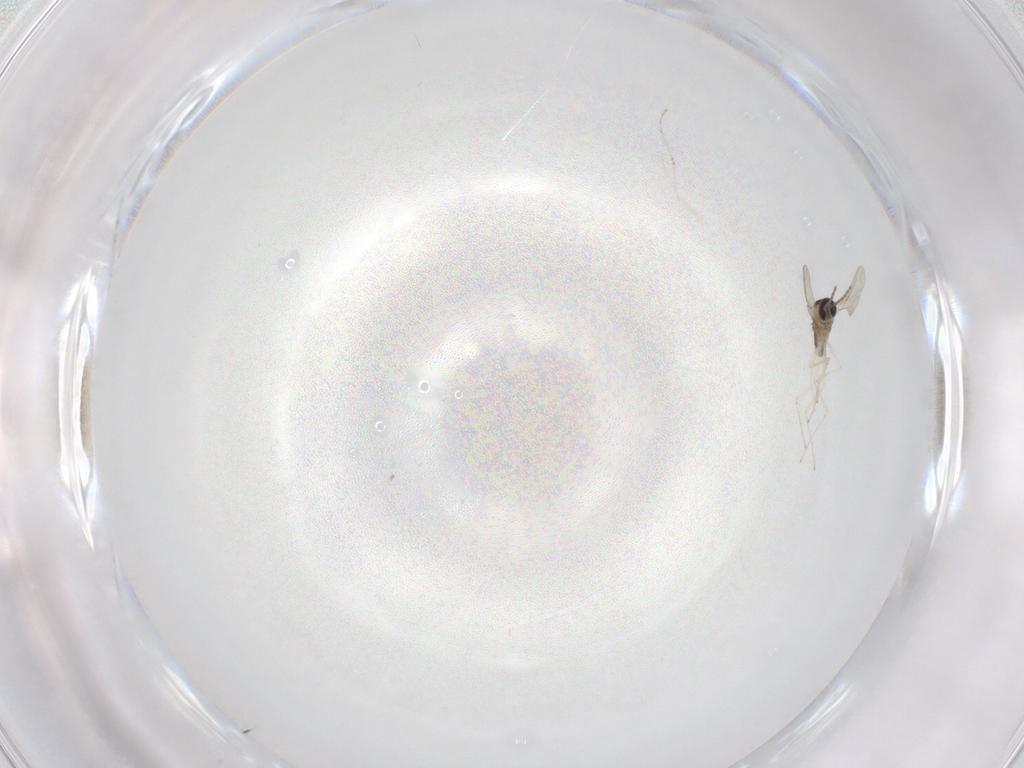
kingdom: Animalia
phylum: Arthropoda
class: Insecta
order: Diptera
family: Cecidomyiidae
